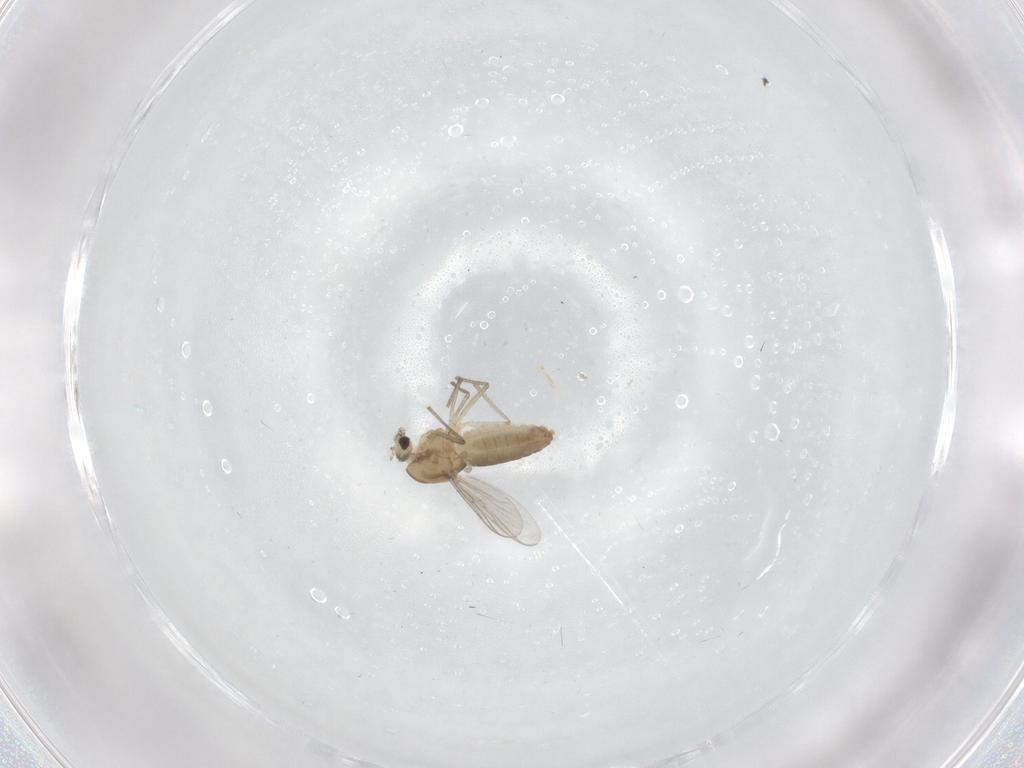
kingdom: Animalia
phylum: Arthropoda
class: Insecta
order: Diptera
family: Chironomidae
